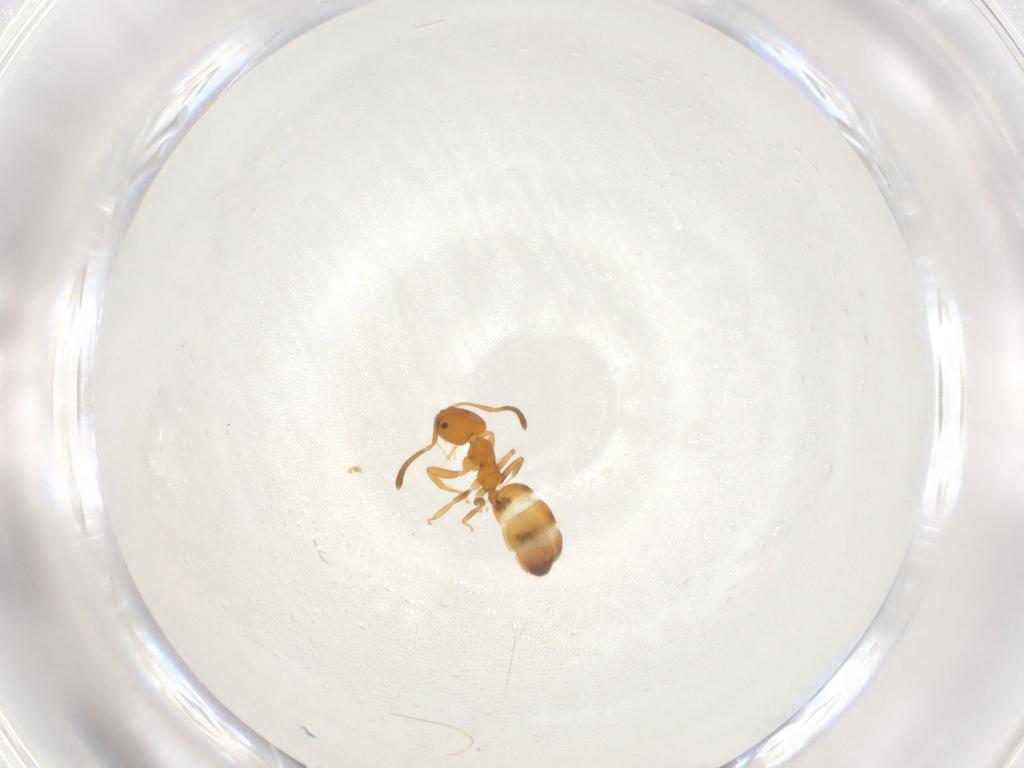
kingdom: Animalia
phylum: Arthropoda
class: Insecta
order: Hymenoptera
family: Formicidae
